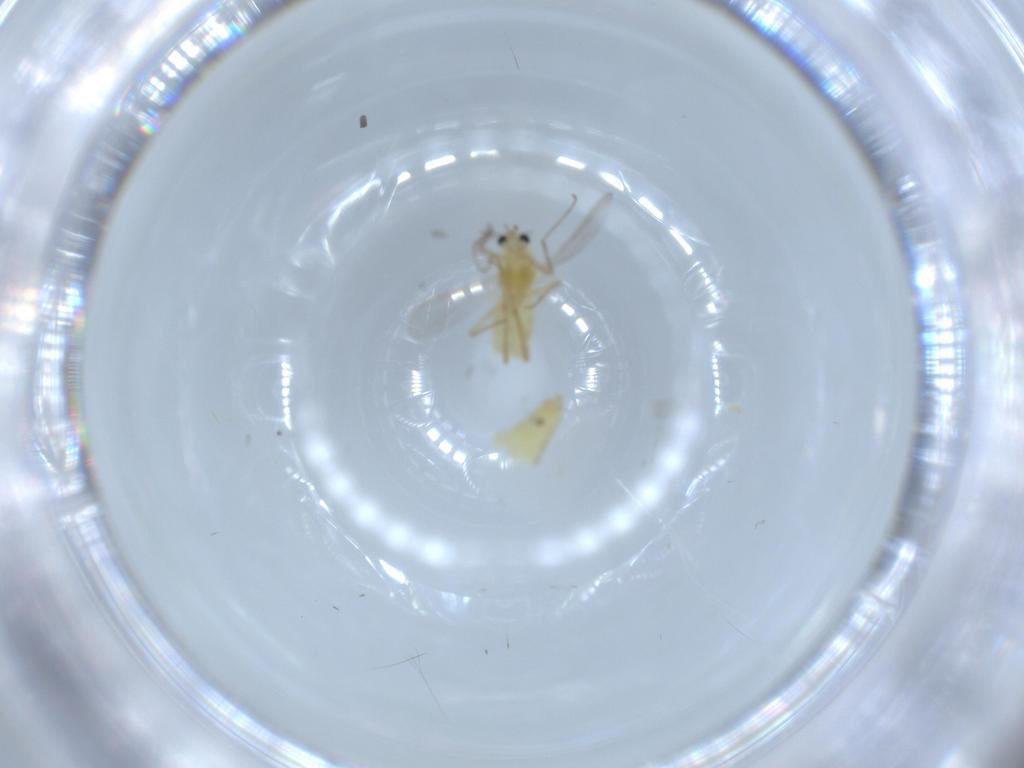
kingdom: Animalia
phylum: Arthropoda
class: Insecta
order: Diptera
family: Chironomidae
